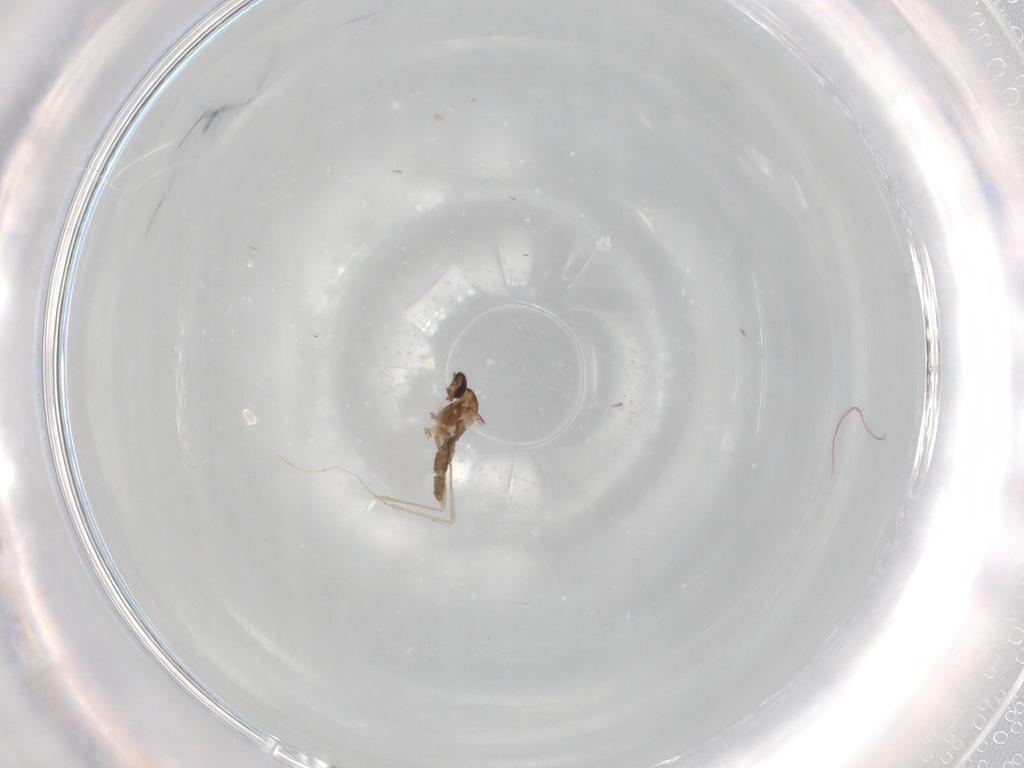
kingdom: Animalia
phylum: Arthropoda
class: Insecta
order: Diptera
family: Cecidomyiidae
